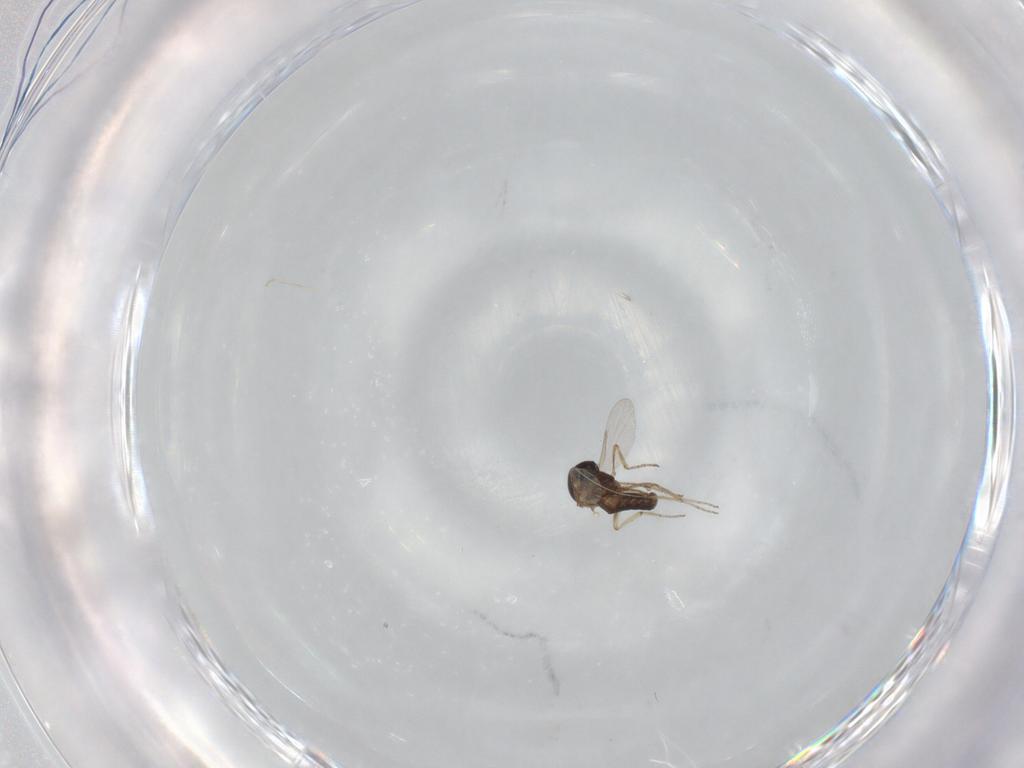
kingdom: Animalia
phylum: Arthropoda
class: Insecta
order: Diptera
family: Ceratopogonidae
